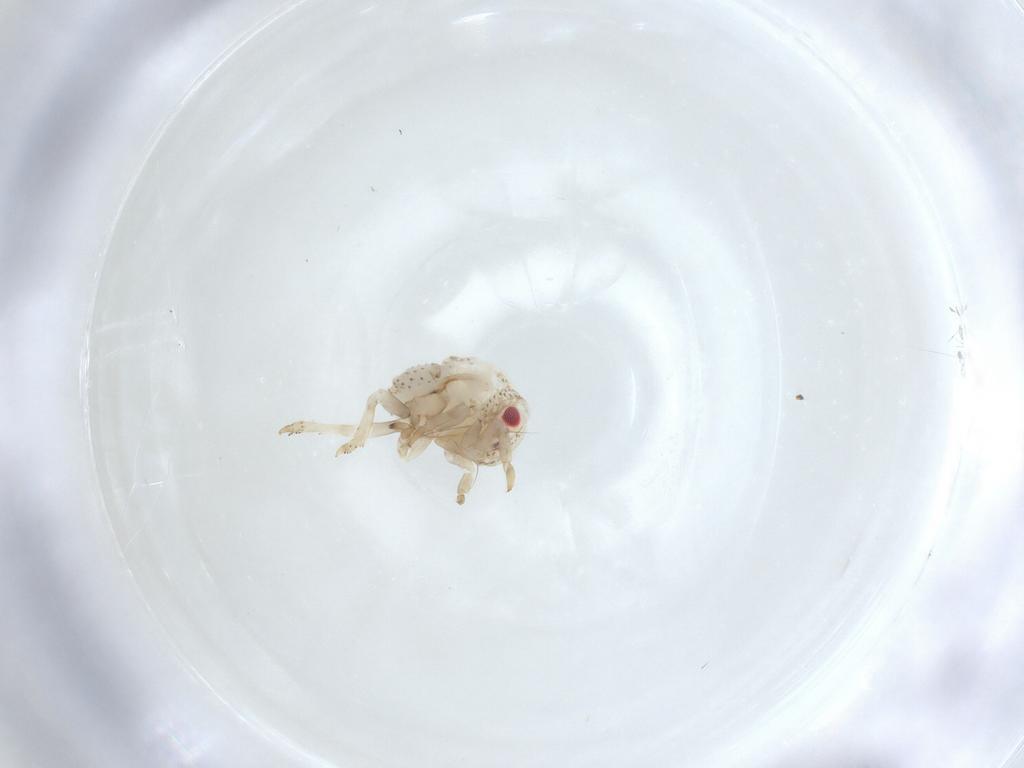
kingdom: Animalia
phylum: Arthropoda
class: Insecta
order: Hemiptera
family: Acanaloniidae
